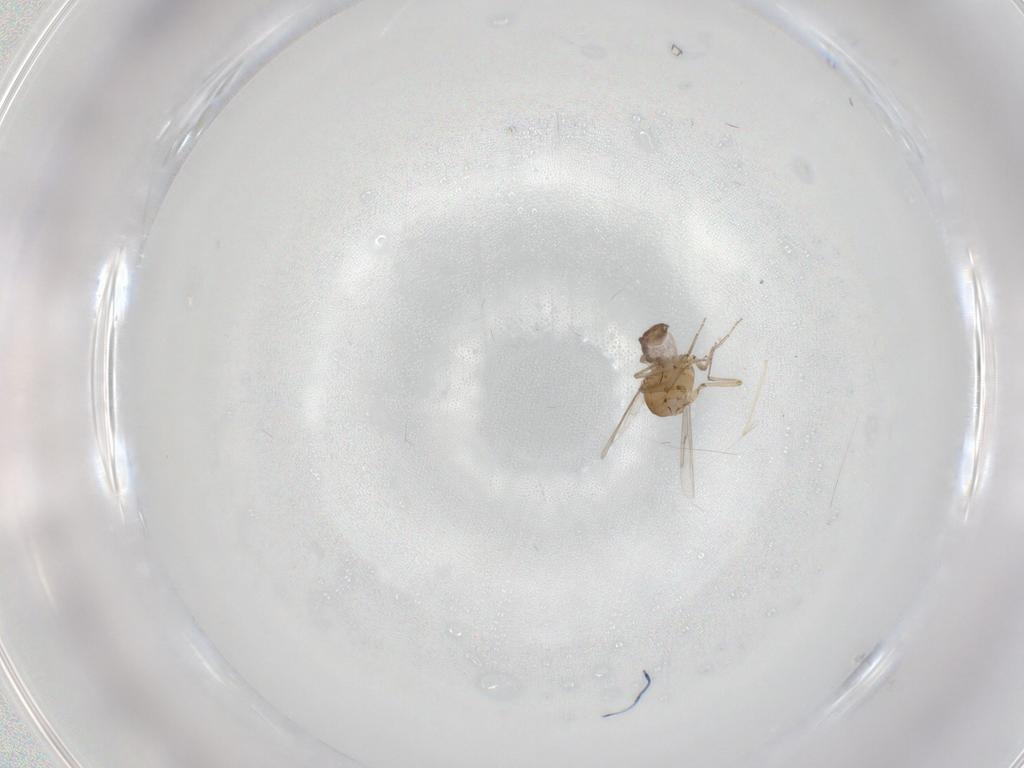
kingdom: Animalia
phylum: Arthropoda
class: Insecta
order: Diptera
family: Chironomidae
